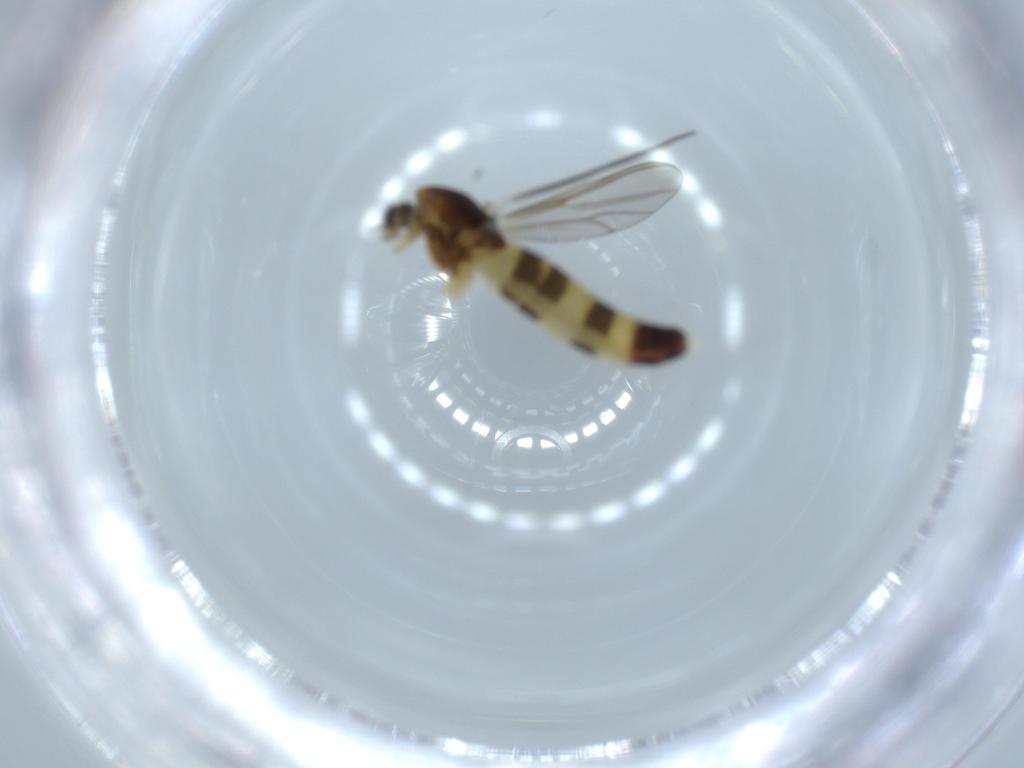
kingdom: Animalia
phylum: Arthropoda
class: Insecta
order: Diptera
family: Chironomidae
